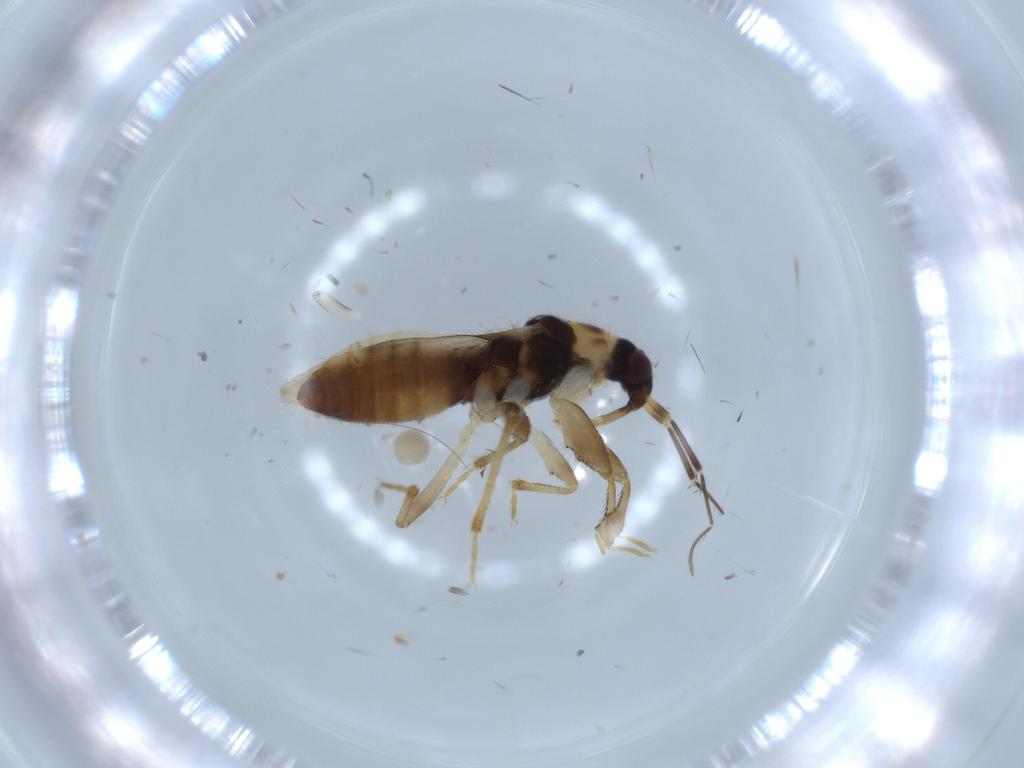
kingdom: Animalia
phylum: Arthropoda
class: Insecta
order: Hemiptera
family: Nabidae
